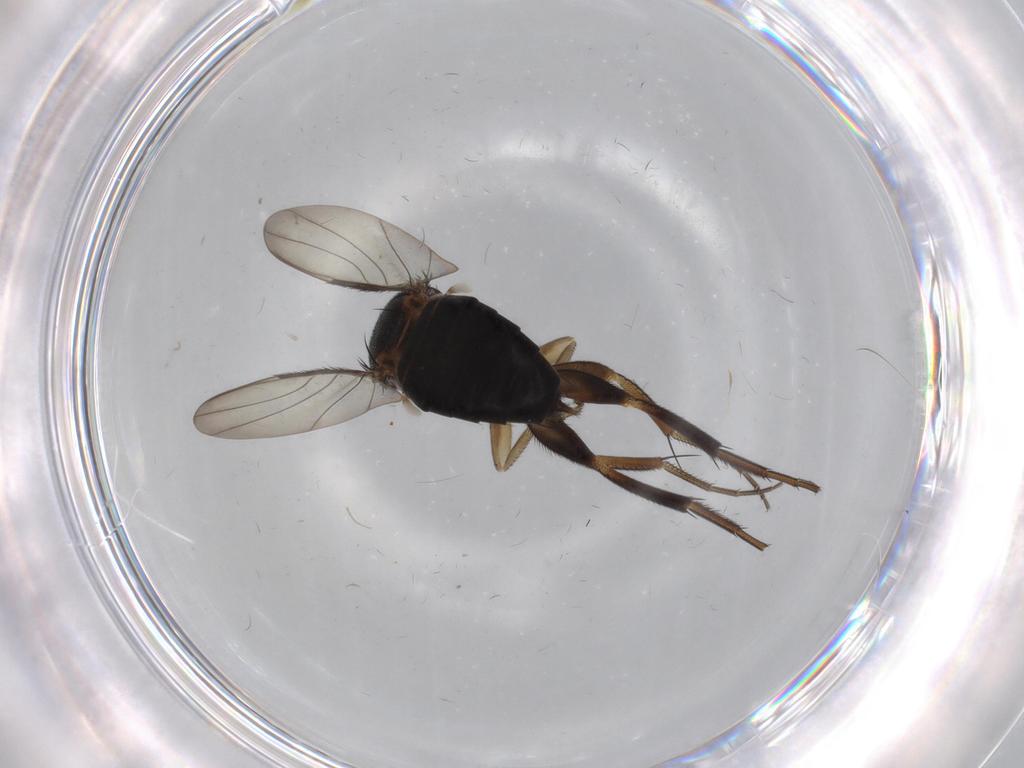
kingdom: Animalia
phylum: Arthropoda
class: Insecta
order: Diptera
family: Phoridae
